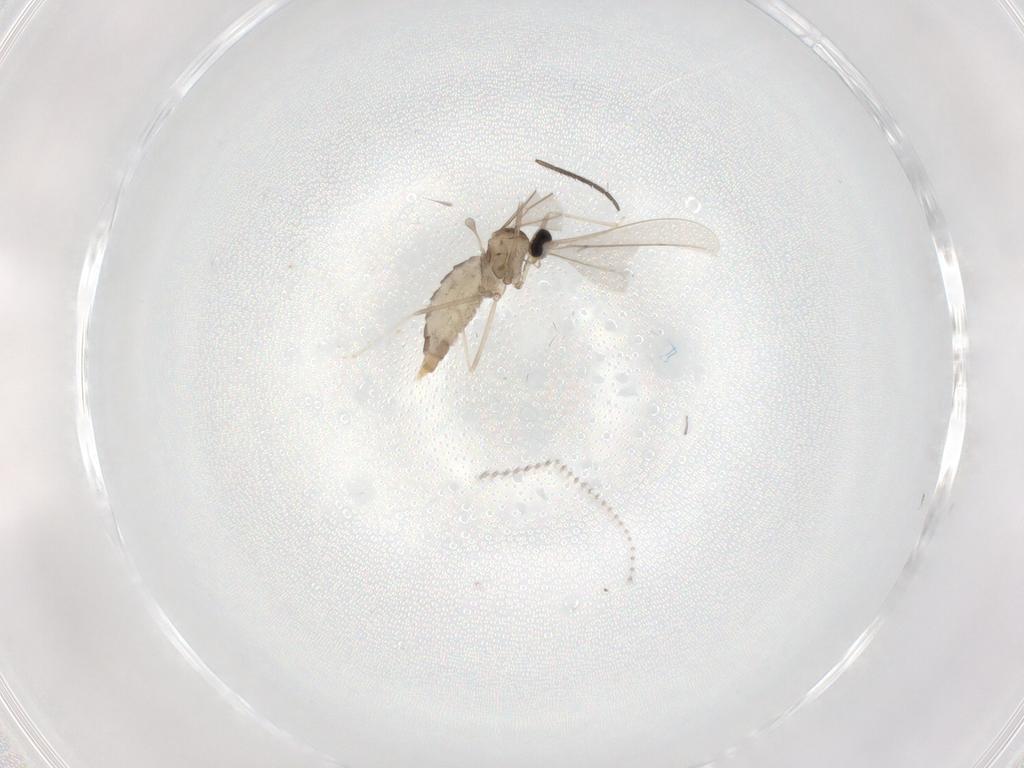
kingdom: Animalia
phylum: Arthropoda
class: Insecta
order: Diptera
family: Cecidomyiidae
